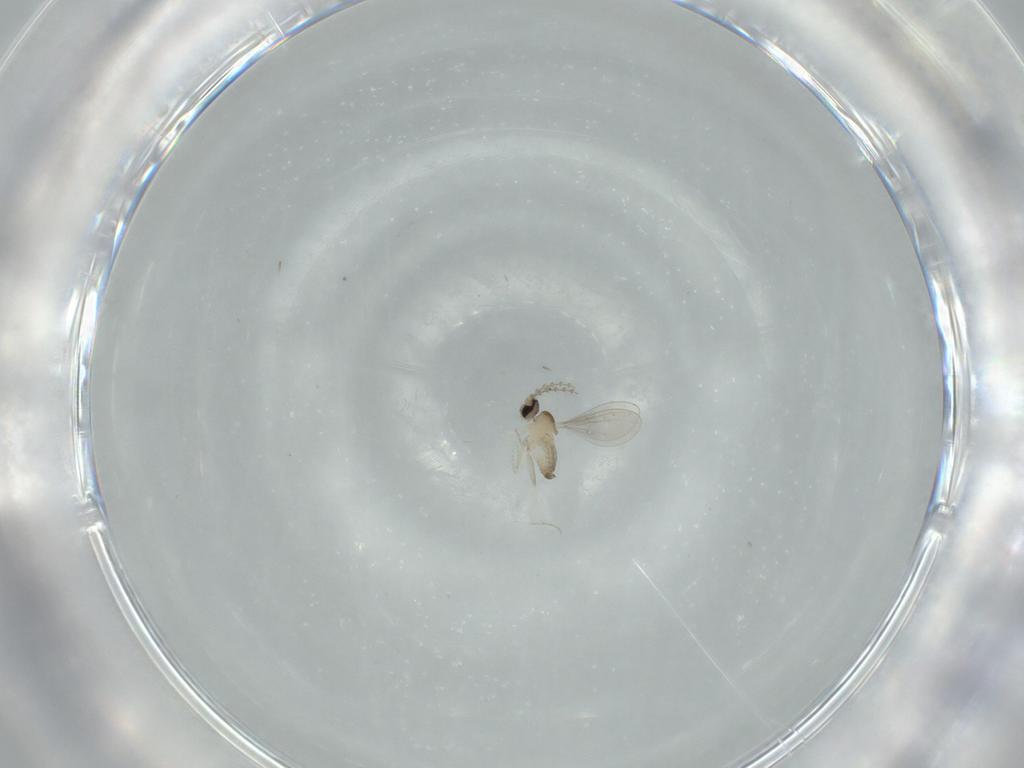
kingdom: Animalia
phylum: Arthropoda
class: Insecta
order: Diptera
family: Cecidomyiidae
